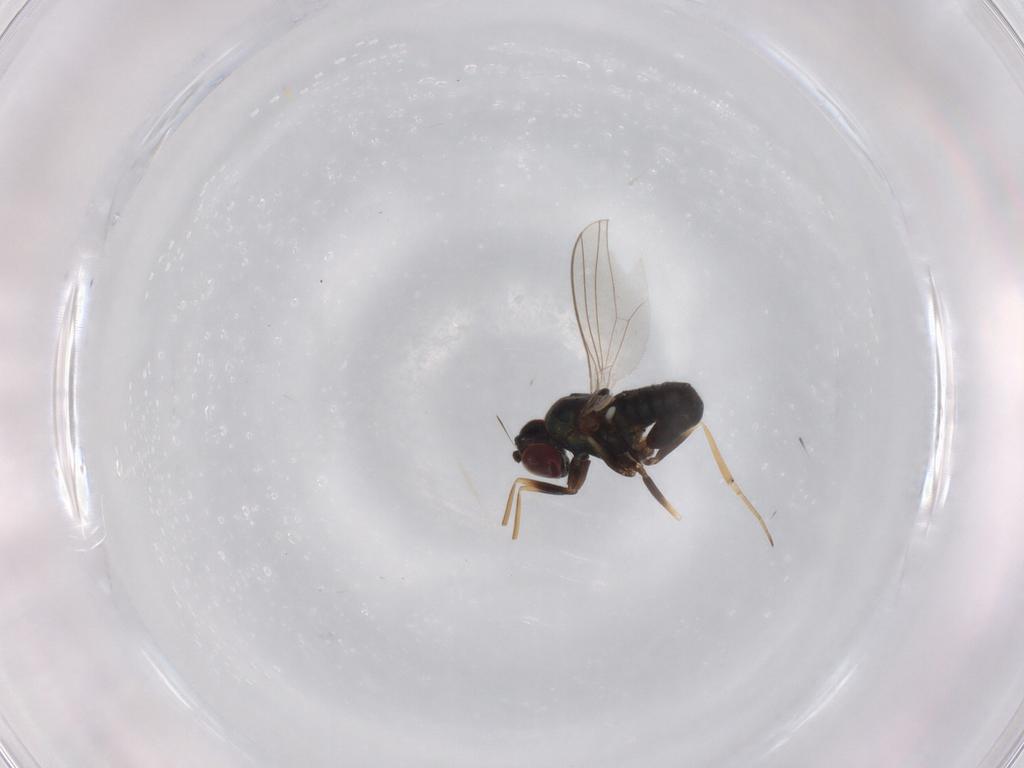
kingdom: Animalia
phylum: Arthropoda
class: Insecta
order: Diptera
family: Dolichopodidae
